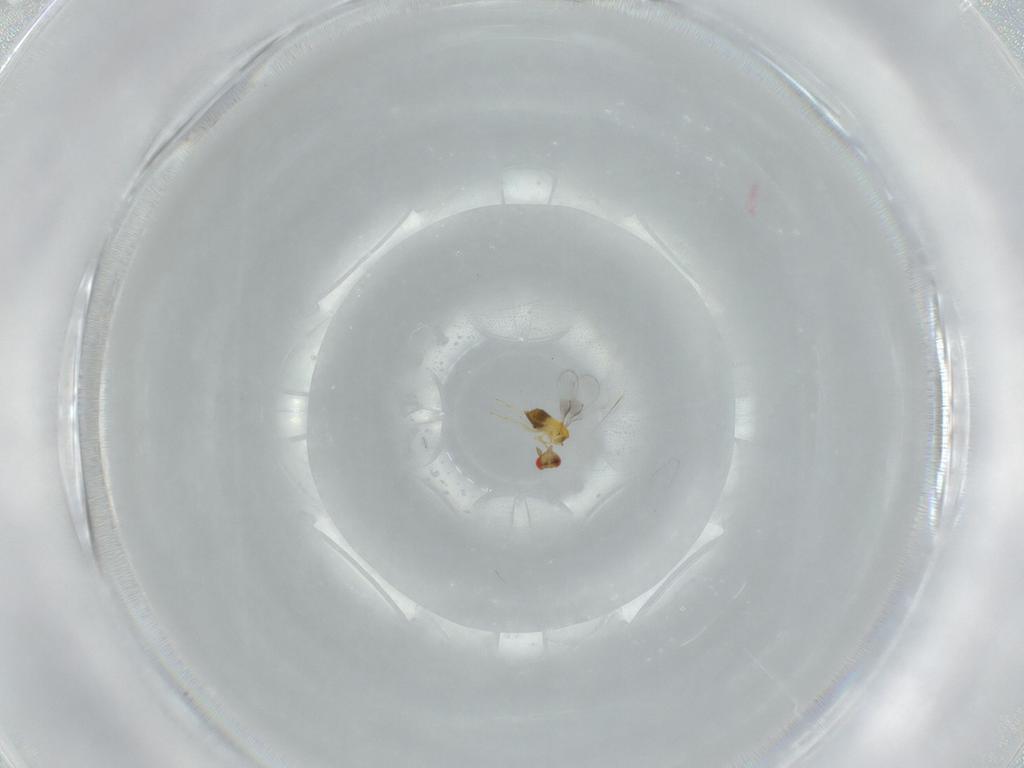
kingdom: Animalia
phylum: Arthropoda
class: Insecta
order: Hymenoptera
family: Trichogrammatidae
